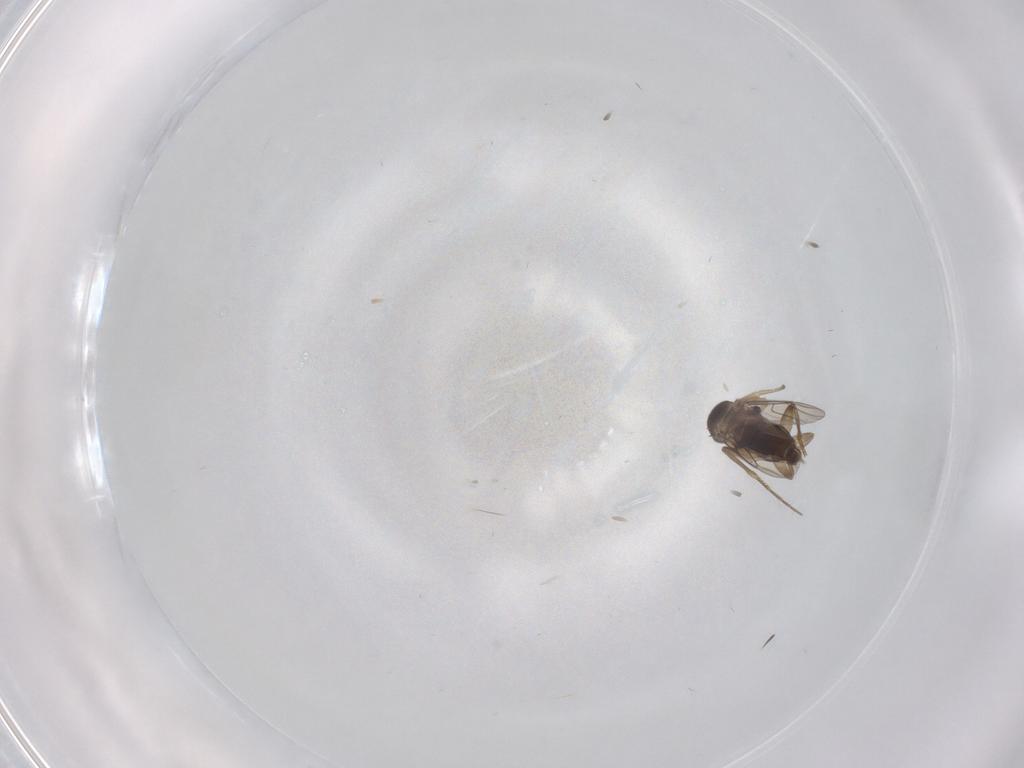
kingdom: Animalia
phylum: Arthropoda
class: Insecta
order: Diptera
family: Phoridae
